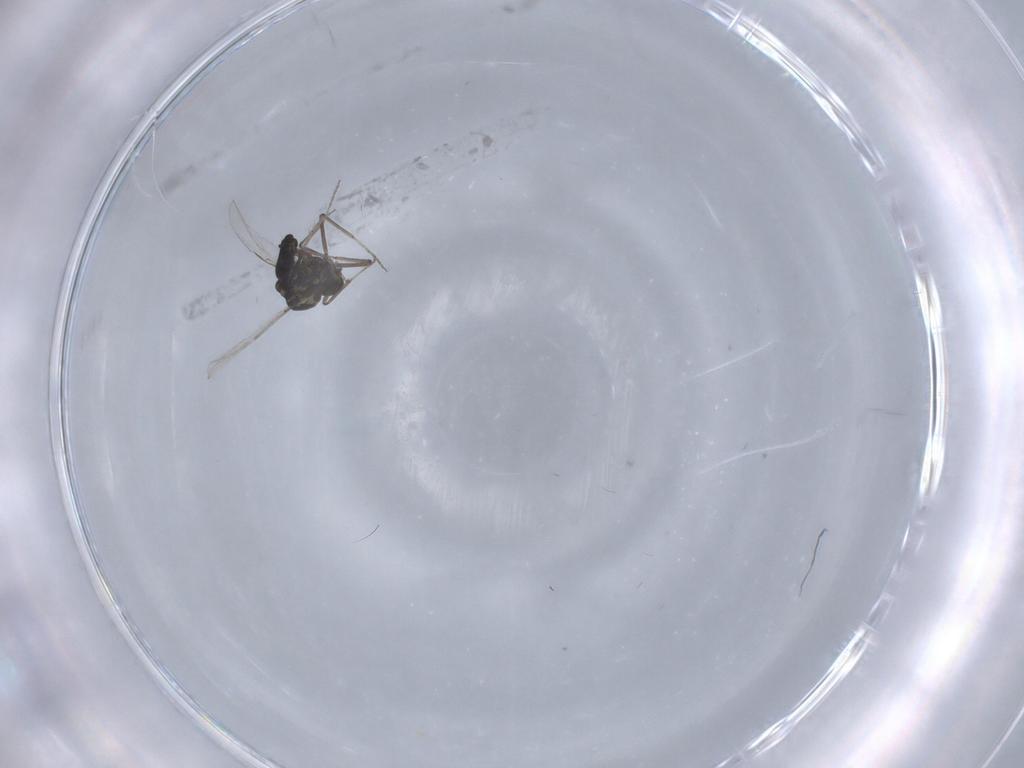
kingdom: Animalia
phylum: Arthropoda
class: Insecta
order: Diptera
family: Ceratopogonidae
